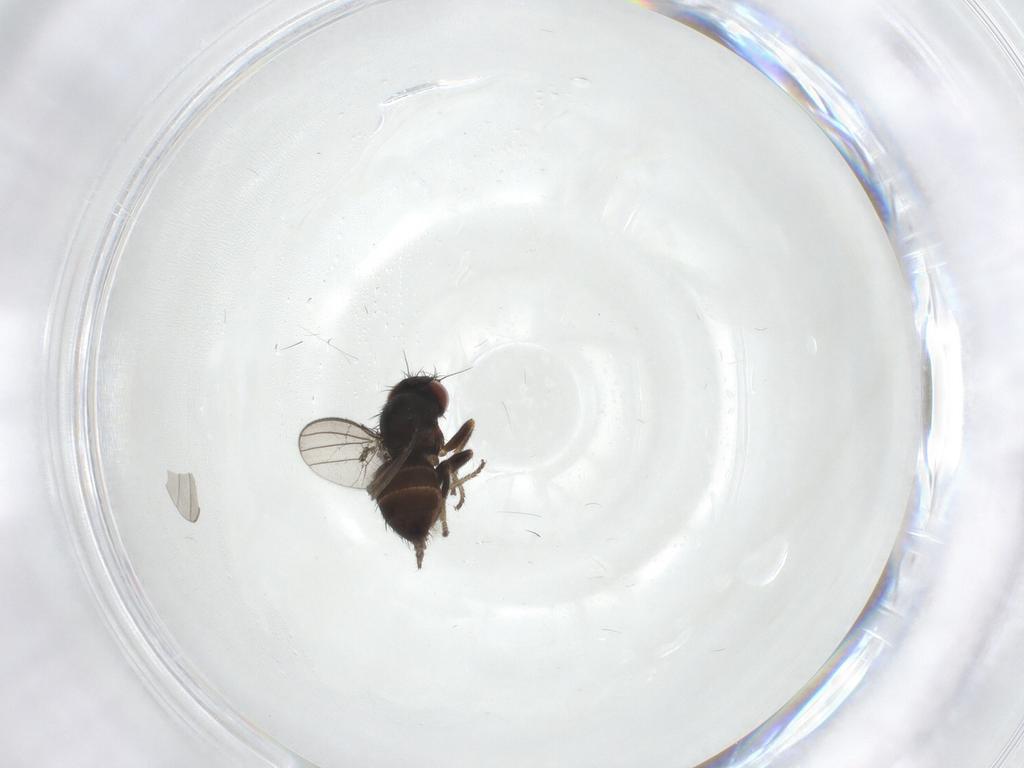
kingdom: Animalia
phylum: Arthropoda
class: Insecta
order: Diptera
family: Milichiidae
